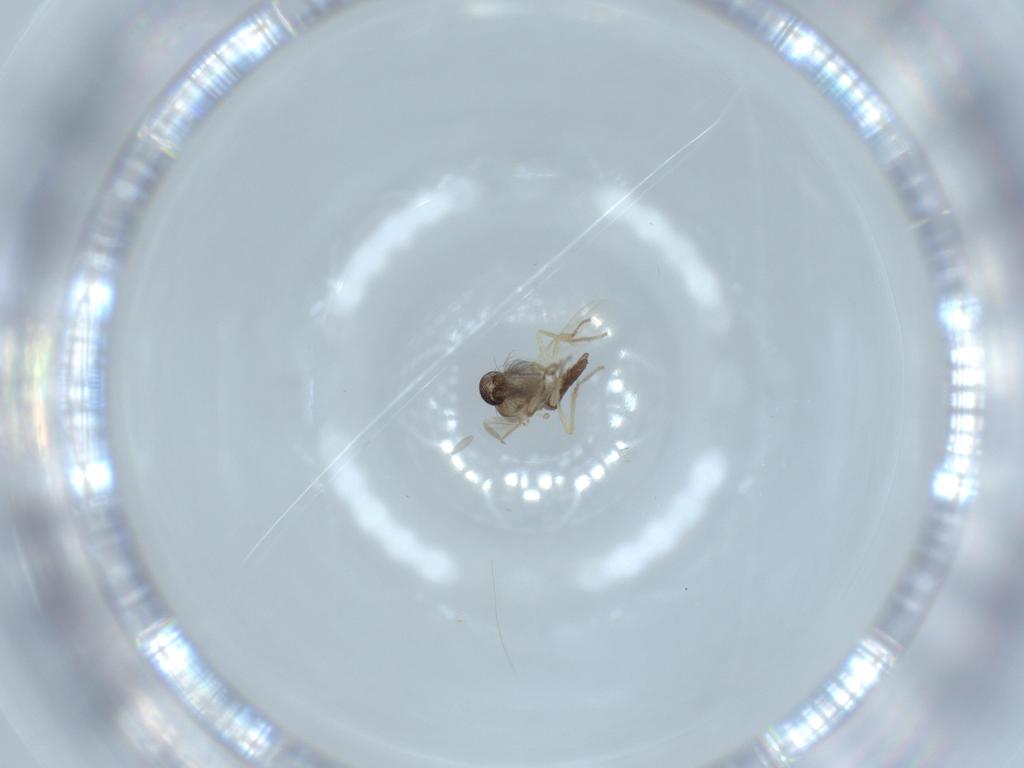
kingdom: Animalia
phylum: Arthropoda
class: Insecta
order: Diptera
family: Ceratopogonidae
